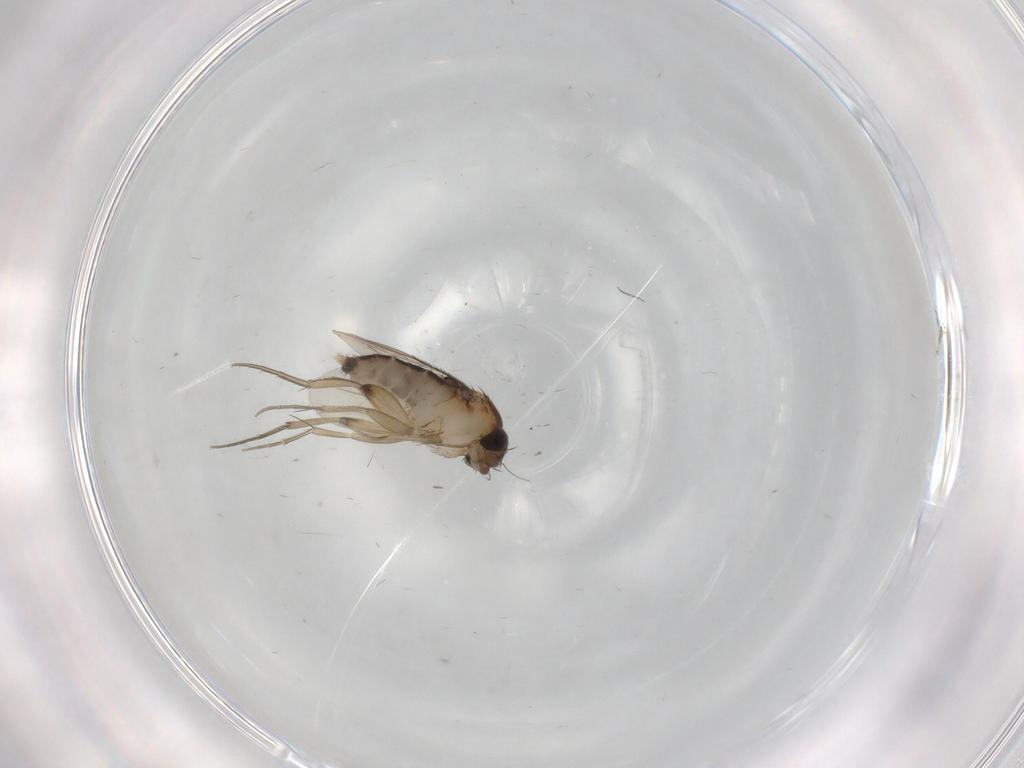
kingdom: Animalia
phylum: Arthropoda
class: Insecta
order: Diptera
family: Phoridae
